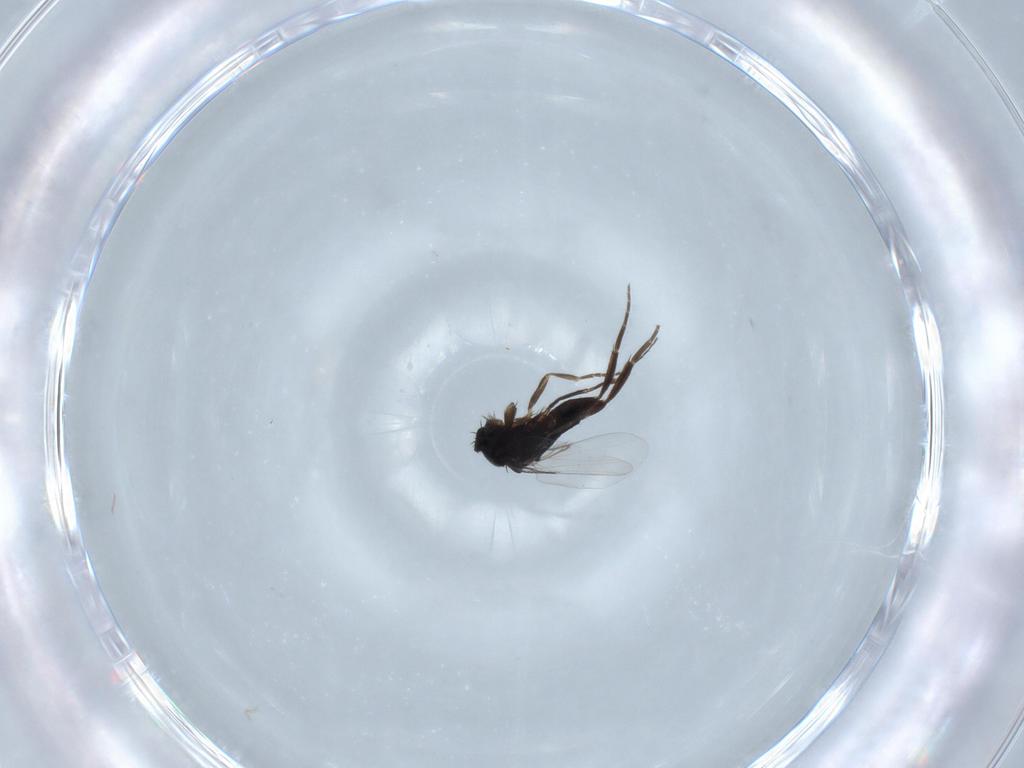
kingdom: Animalia
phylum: Arthropoda
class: Insecta
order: Diptera
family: Phoridae
